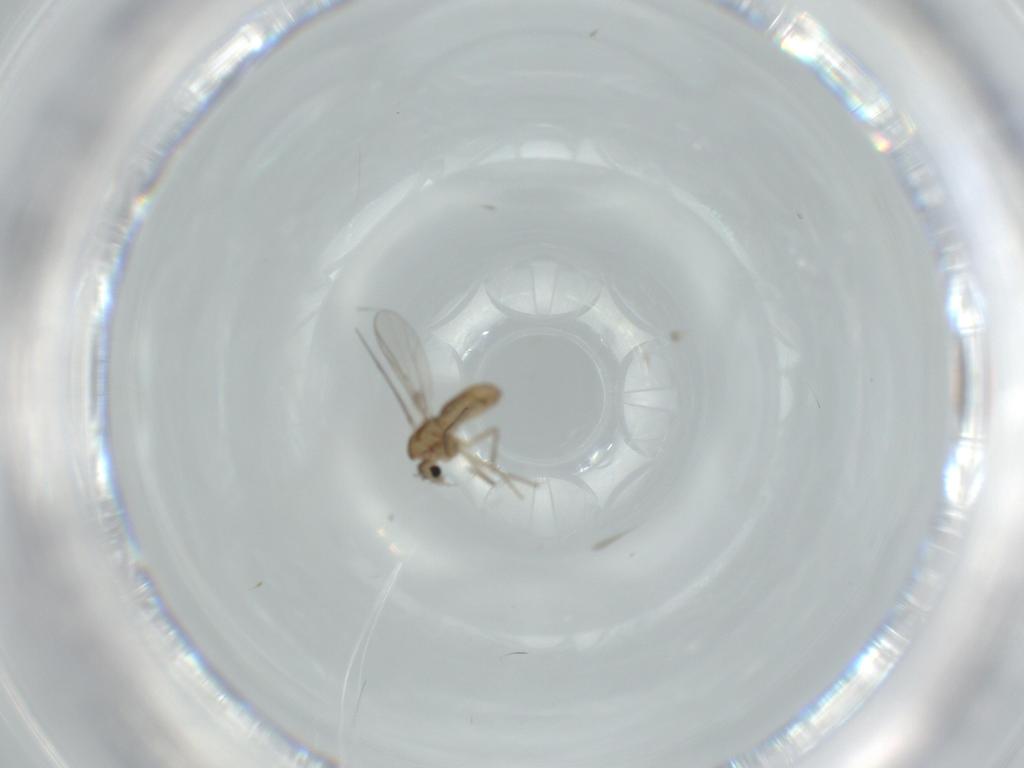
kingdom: Animalia
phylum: Arthropoda
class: Insecta
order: Diptera
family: Chironomidae
